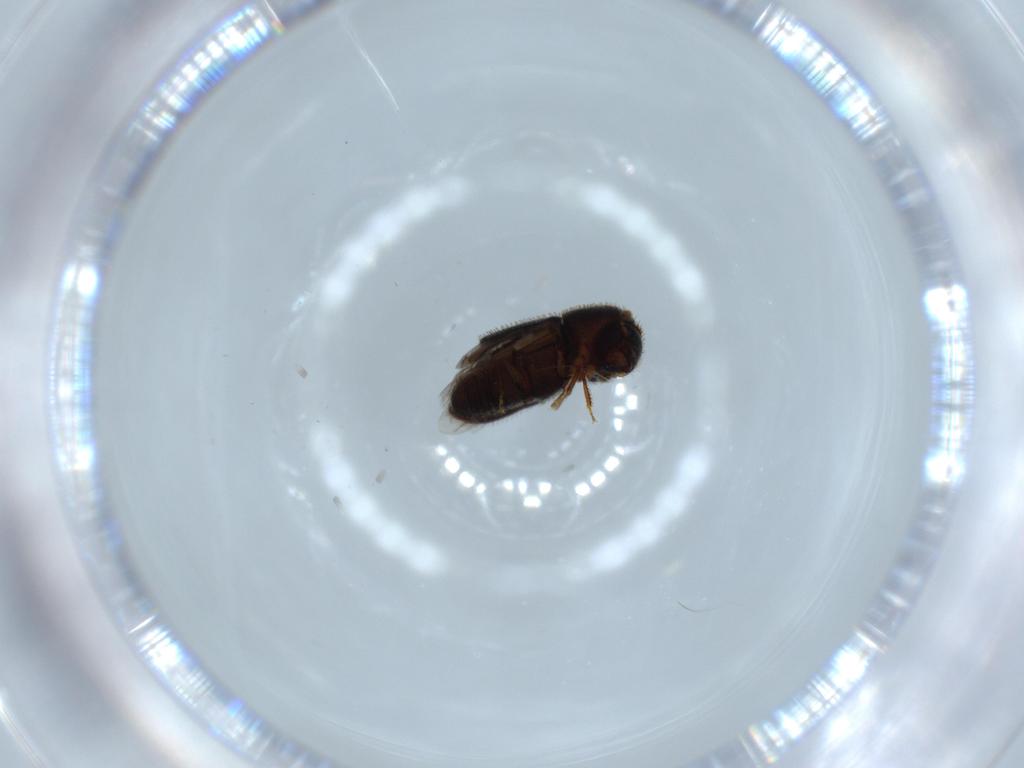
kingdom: Animalia
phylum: Arthropoda
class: Insecta
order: Coleoptera
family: Curculionidae
